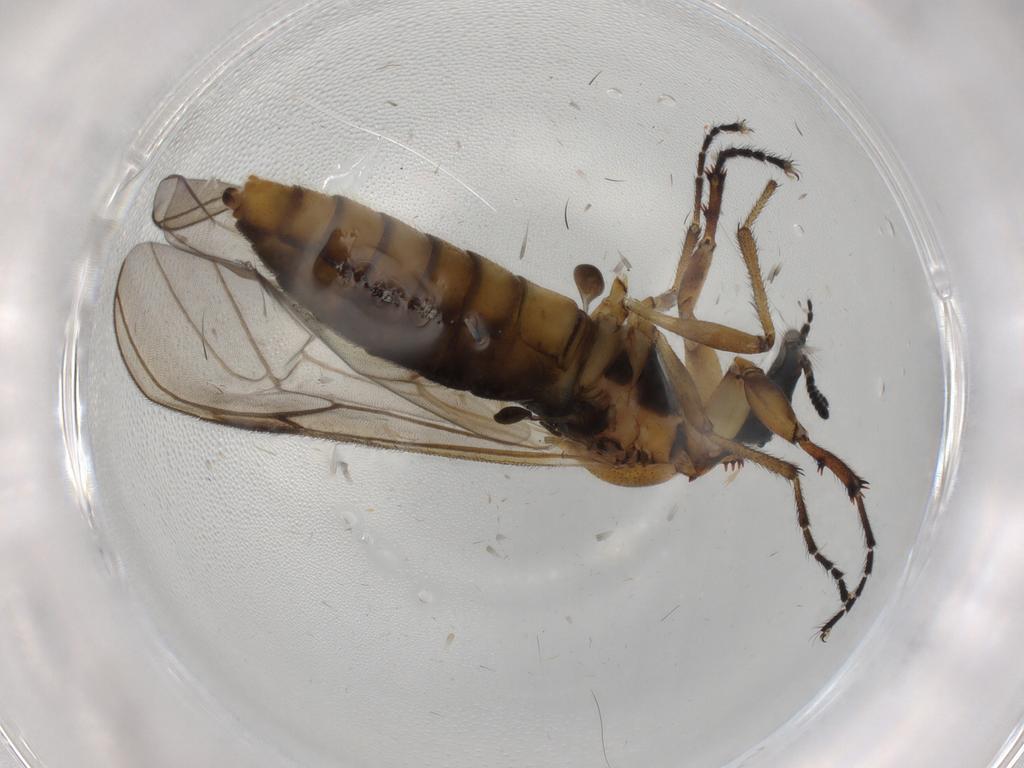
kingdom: Animalia
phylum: Arthropoda
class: Insecta
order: Diptera
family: Bibionidae
